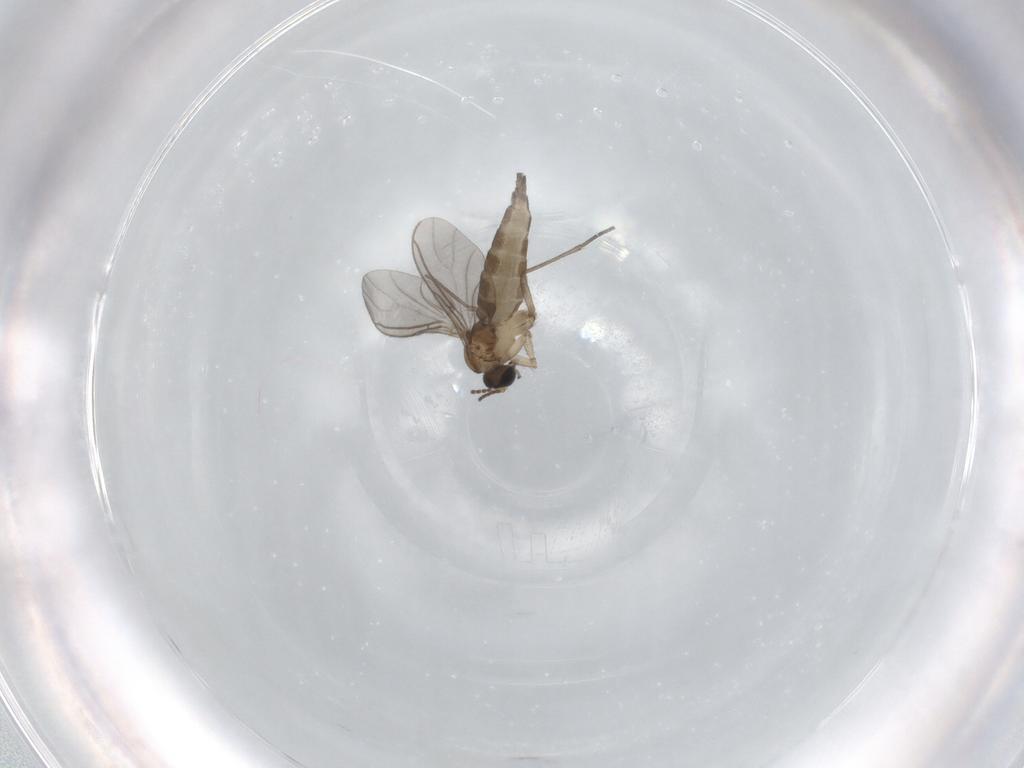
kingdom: Animalia
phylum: Arthropoda
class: Insecta
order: Diptera
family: Sciaridae
